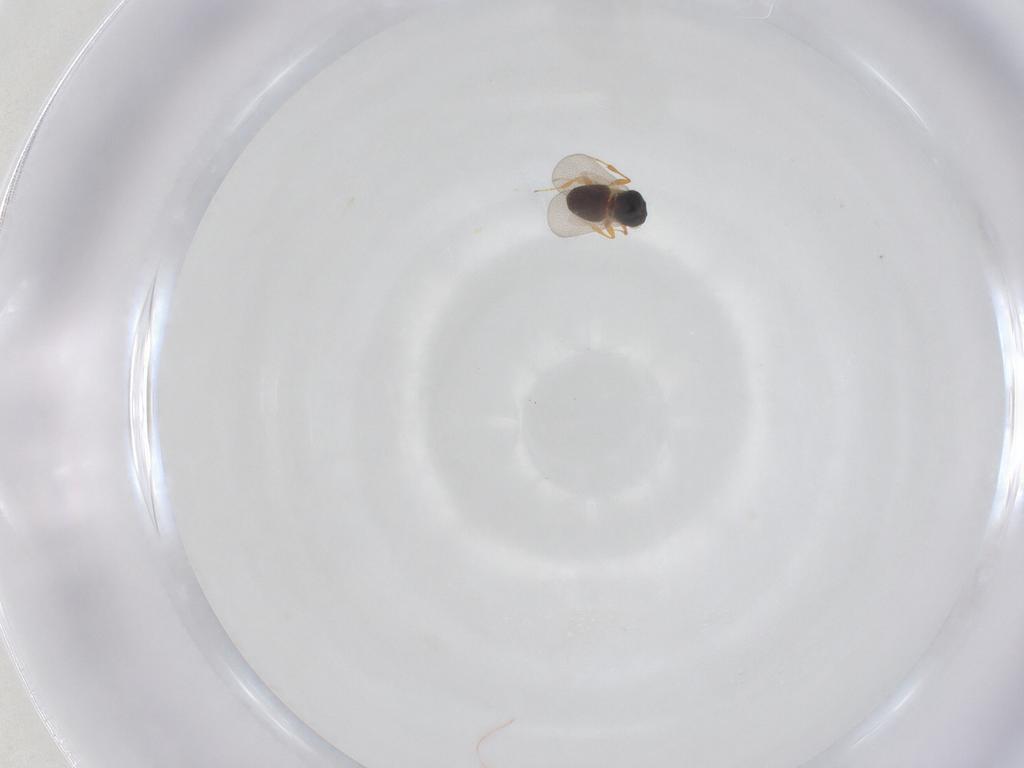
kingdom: Animalia
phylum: Arthropoda
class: Insecta
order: Hymenoptera
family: Platygastridae
